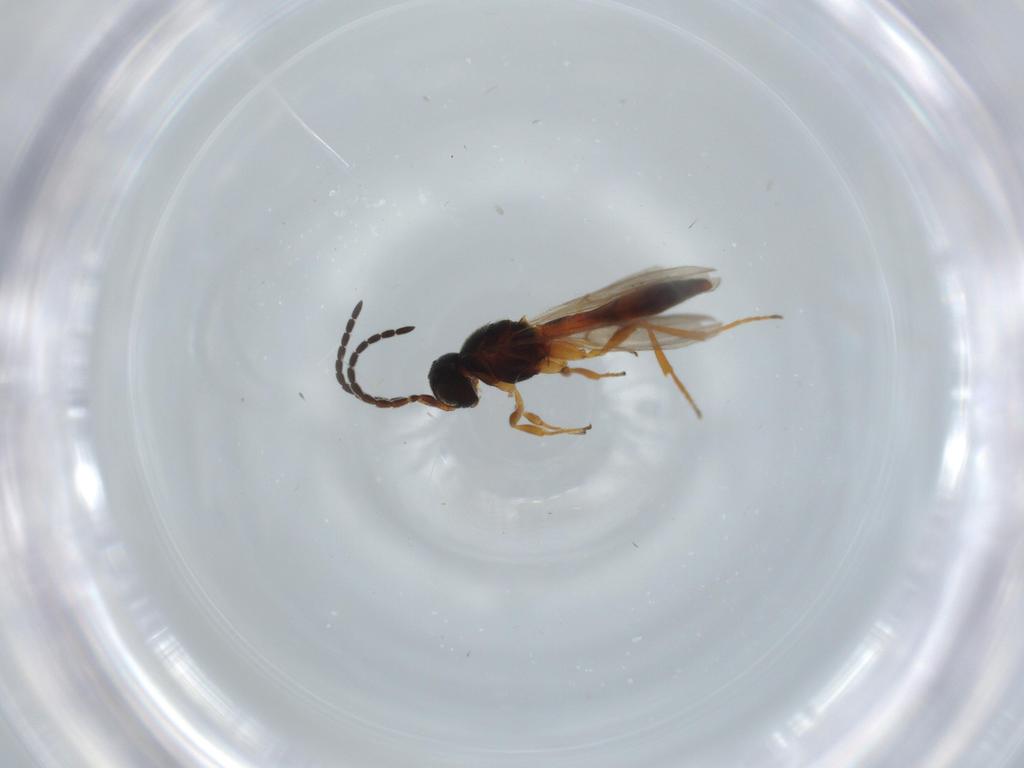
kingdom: Animalia
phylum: Arthropoda
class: Insecta
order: Hymenoptera
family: Scelionidae
